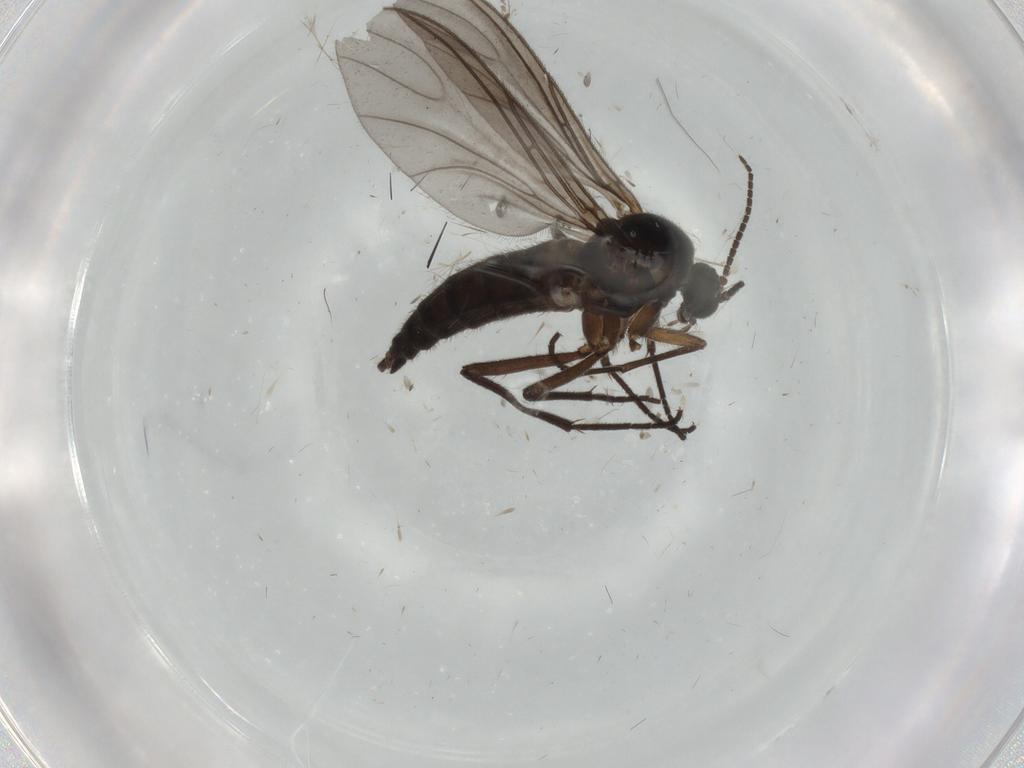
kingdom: Animalia
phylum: Arthropoda
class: Insecta
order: Diptera
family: Sciaridae
